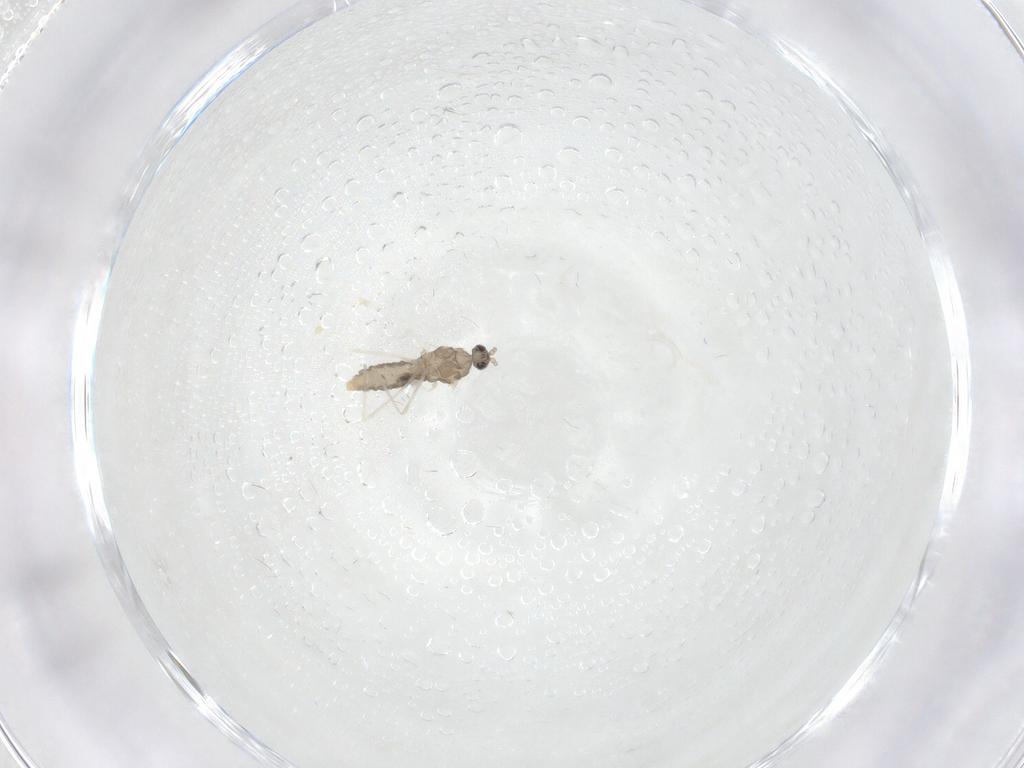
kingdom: Animalia
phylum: Arthropoda
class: Insecta
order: Diptera
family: Cecidomyiidae
